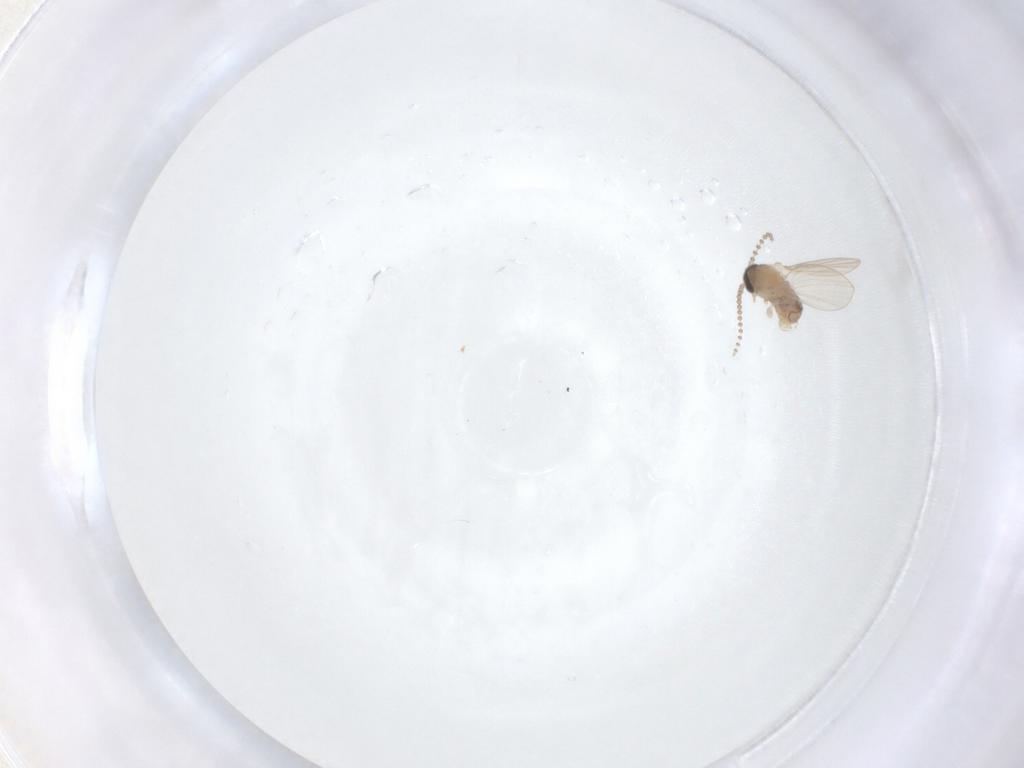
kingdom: Animalia
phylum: Arthropoda
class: Insecta
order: Diptera
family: Psychodidae
